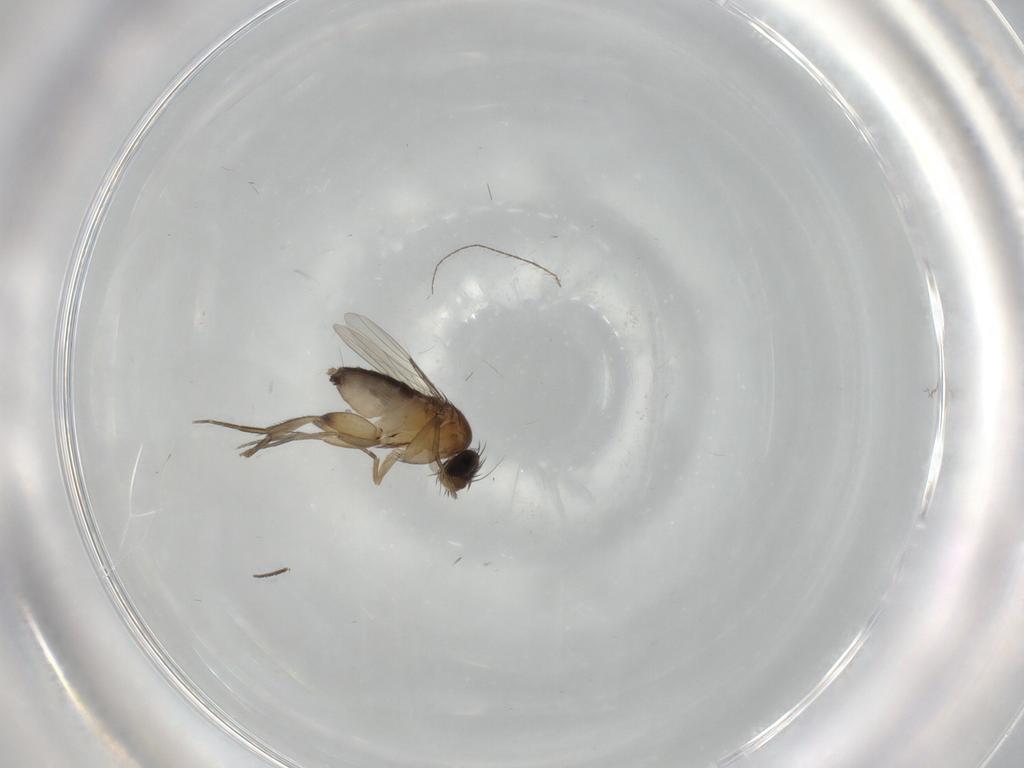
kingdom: Animalia
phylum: Arthropoda
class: Insecta
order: Diptera
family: Phoridae
